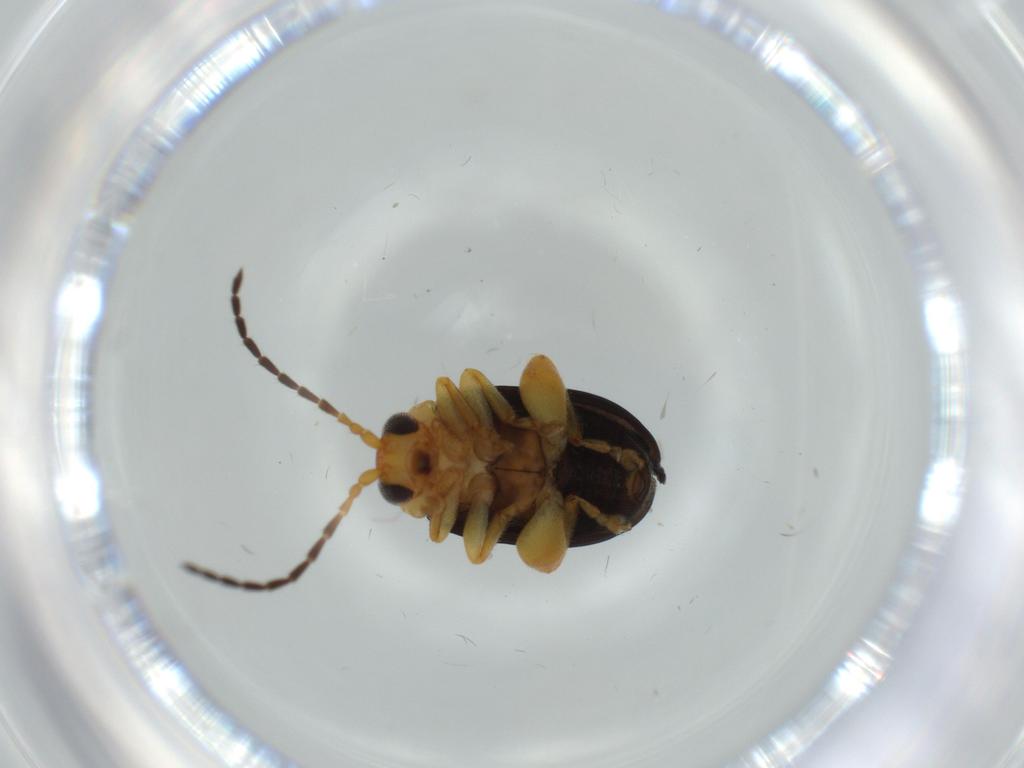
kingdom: Animalia
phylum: Arthropoda
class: Insecta
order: Coleoptera
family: Chrysomelidae
